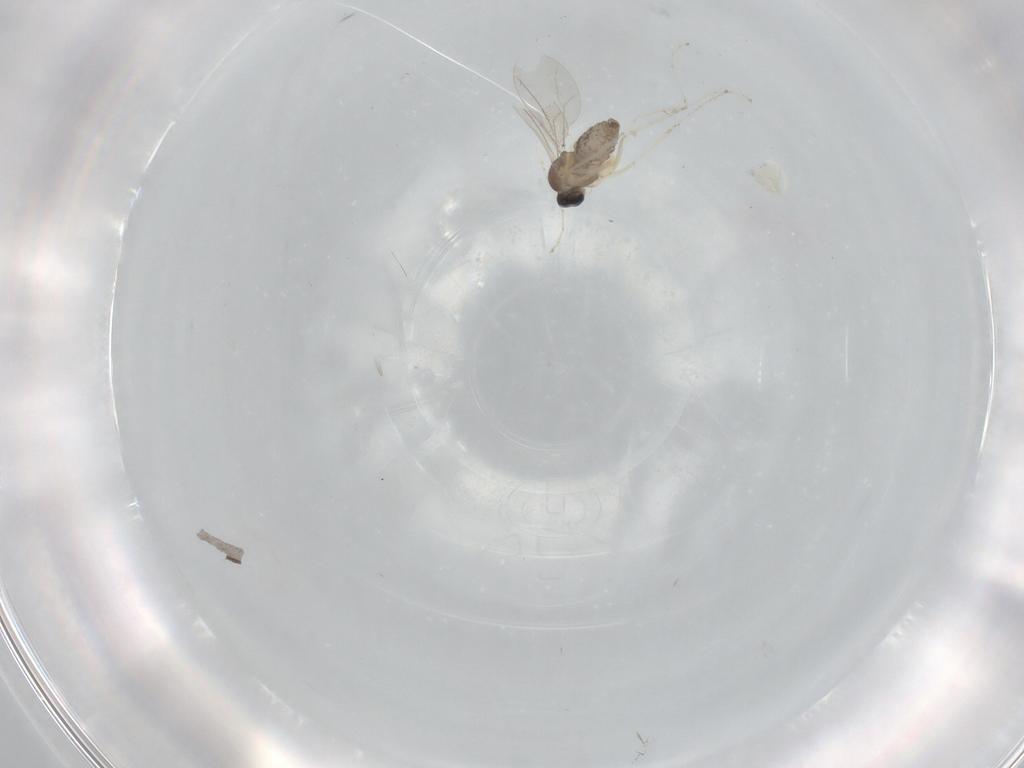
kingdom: Animalia
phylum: Arthropoda
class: Insecta
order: Diptera
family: Cecidomyiidae
